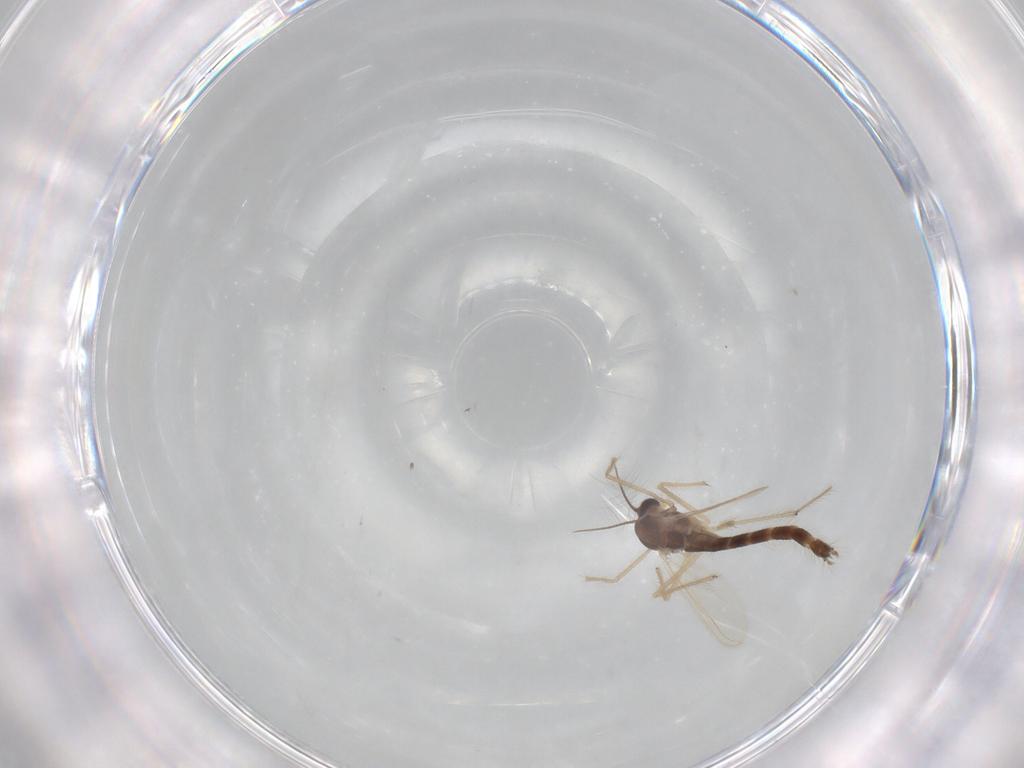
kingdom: Animalia
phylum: Arthropoda
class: Insecta
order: Diptera
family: Chironomidae
